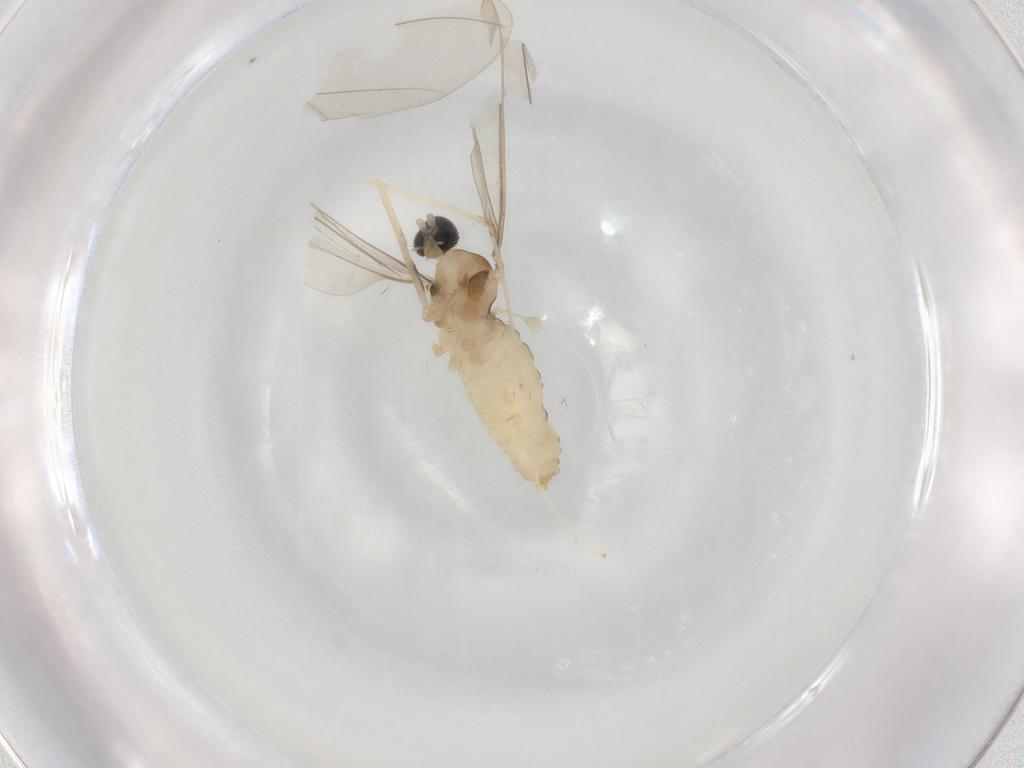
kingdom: Animalia
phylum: Arthropoda
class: Insecta
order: Diptera
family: Cecidomyiidae
